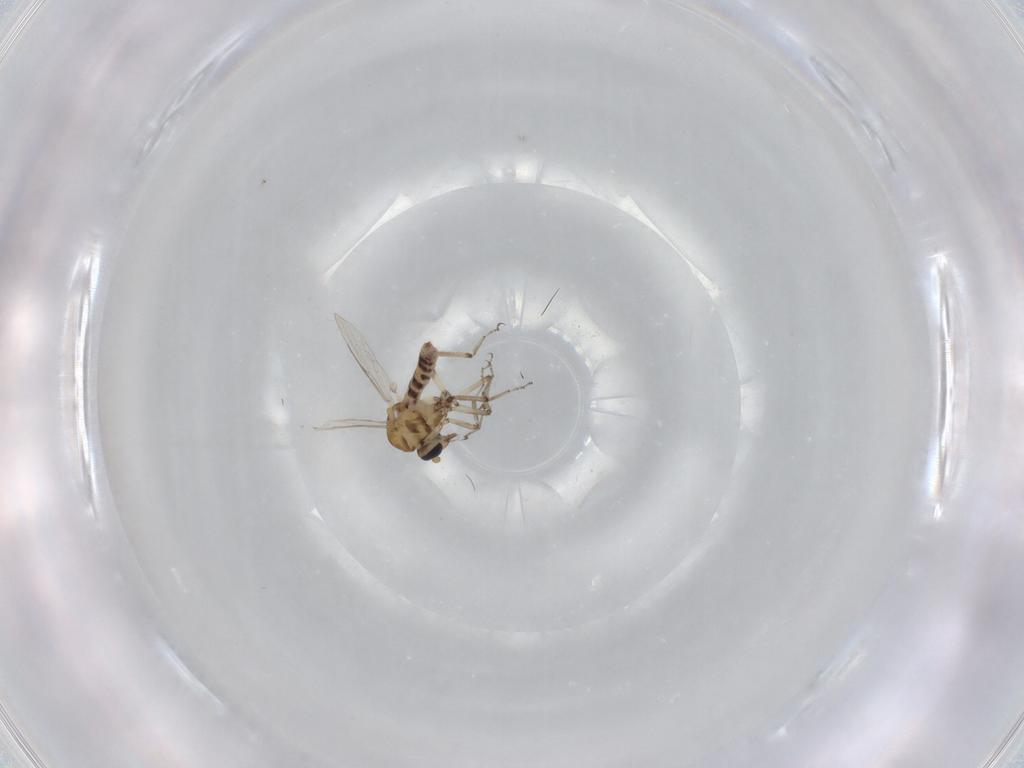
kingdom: Animalia
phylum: Arthropoda
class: Insecta
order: Diptera
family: Ceratopogonidae
